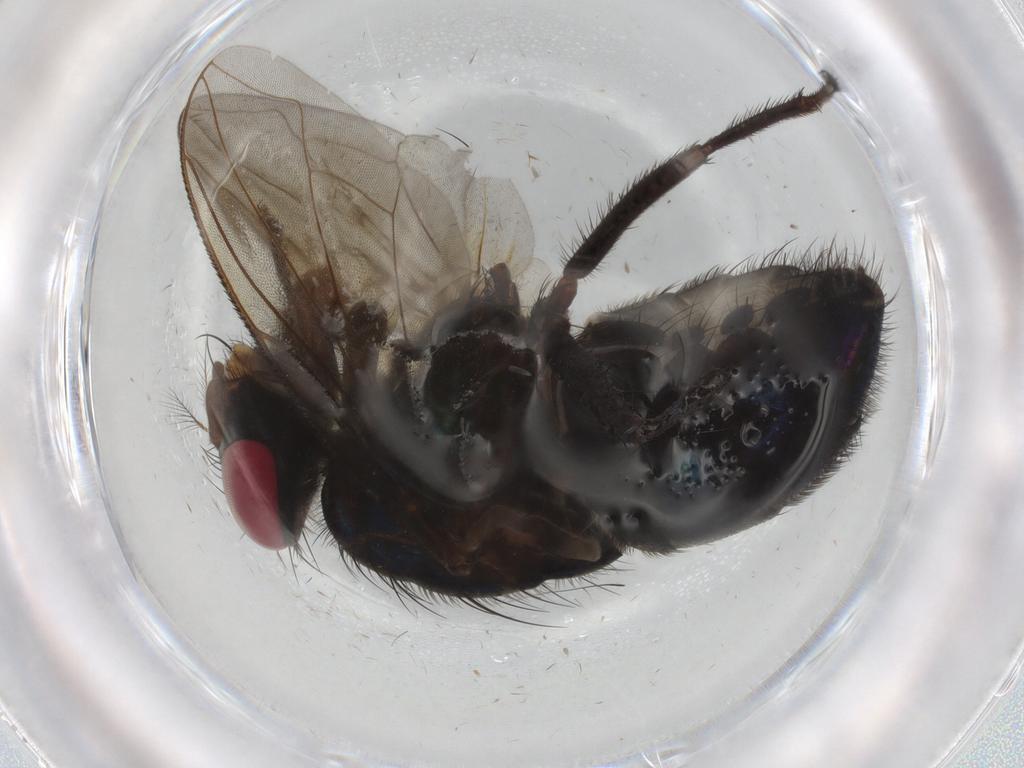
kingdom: Animalia
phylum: Arthropoda
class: Insecta
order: Diptera
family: Calliphoridae
